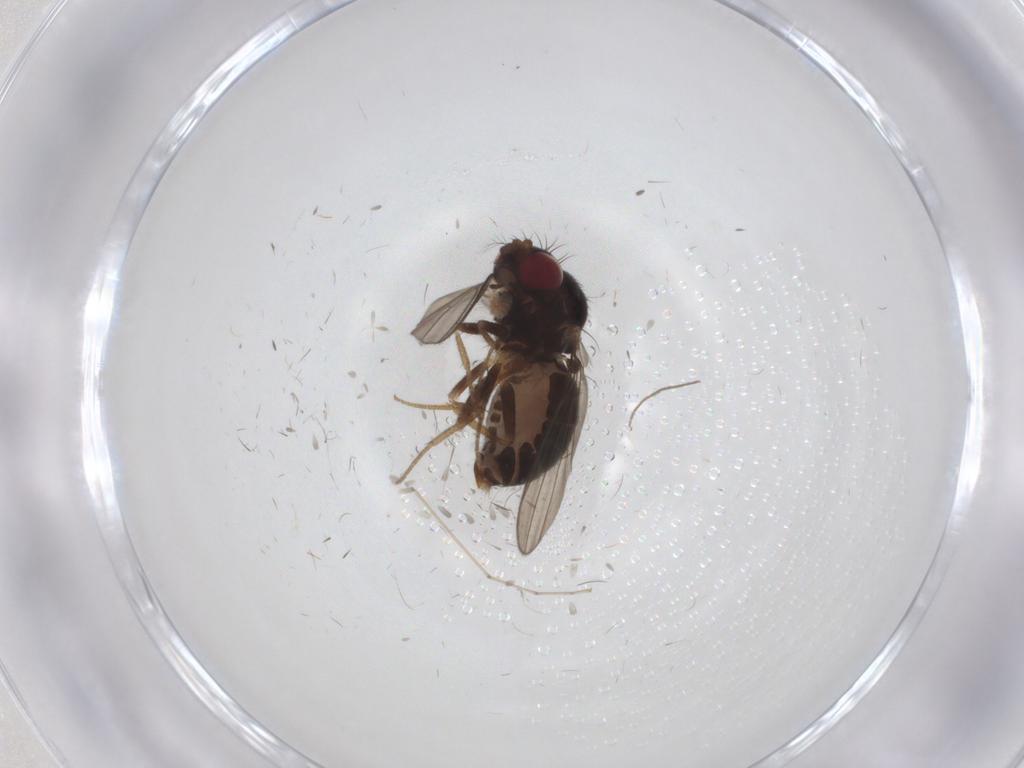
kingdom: Animalia
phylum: Arthropoda
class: Insecta
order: Diptera
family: Drosophilidae
